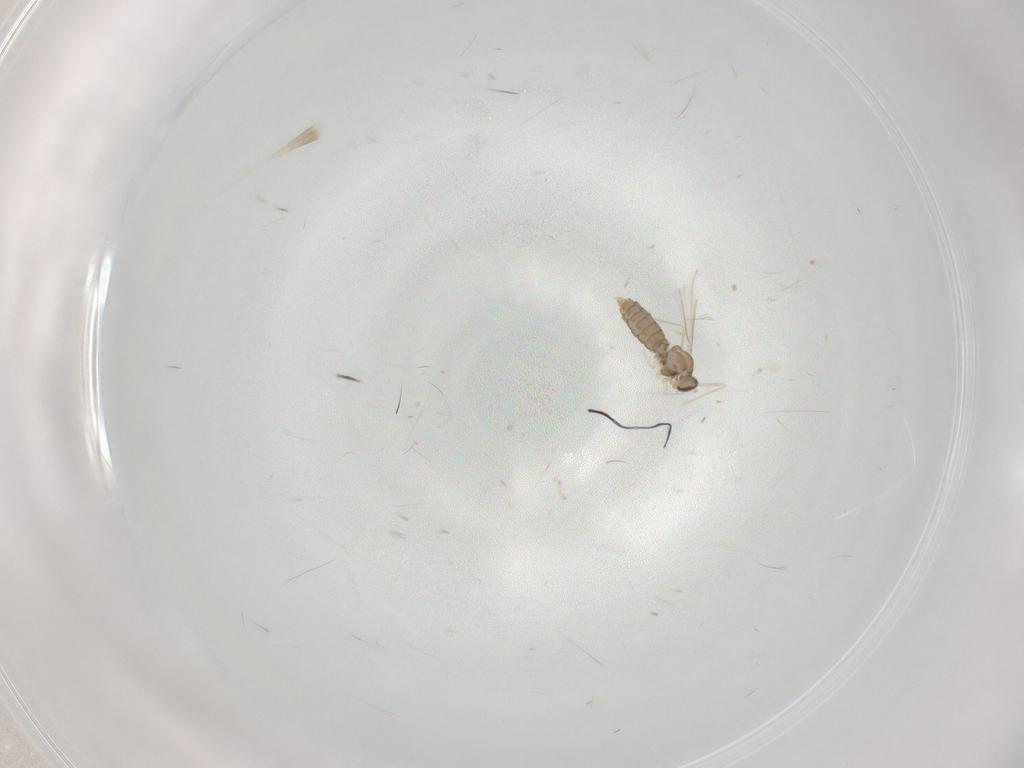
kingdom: Animalia
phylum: Arthropoda
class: Insecta
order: Diptera
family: Cecidomyiidae
